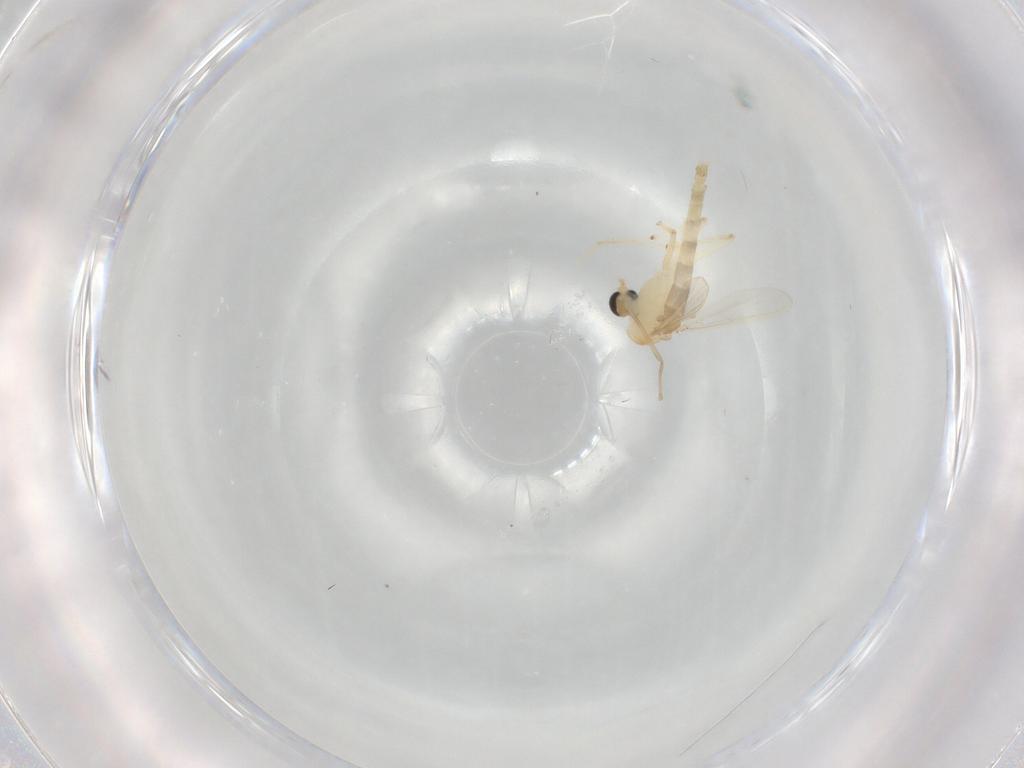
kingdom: Animalia
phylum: Arthropoda
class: Insecta
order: Diptera
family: Chironomidae
